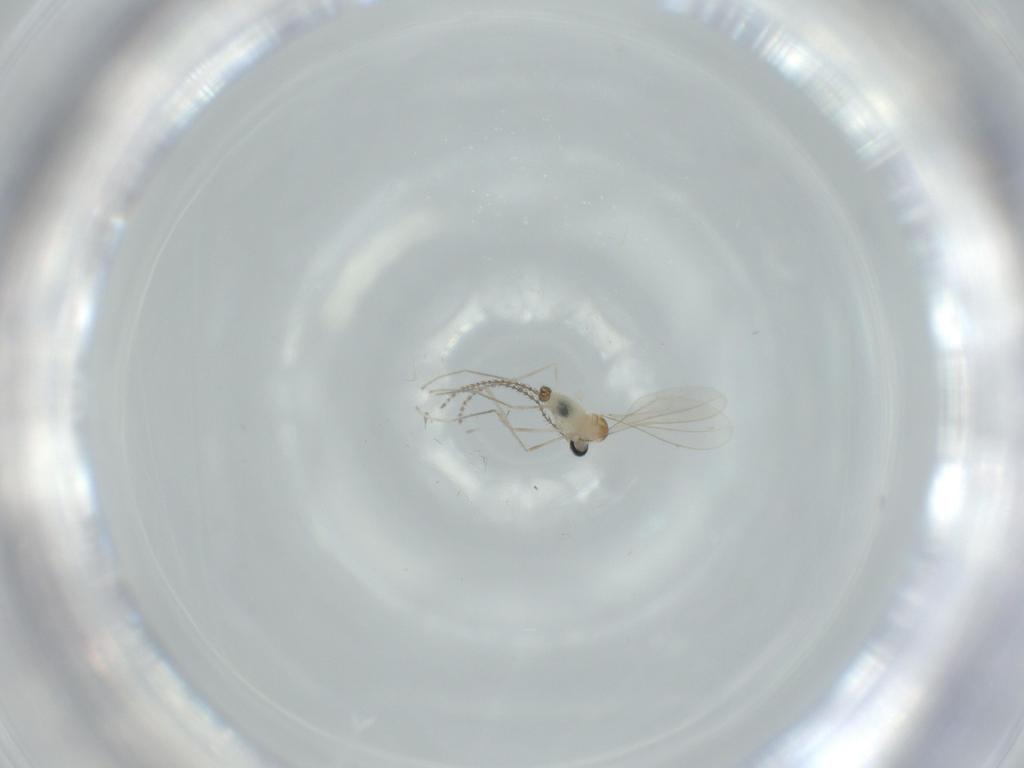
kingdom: Animalia
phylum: Arthropoda
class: Insecta
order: Diptera
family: Cecidomyiidae
